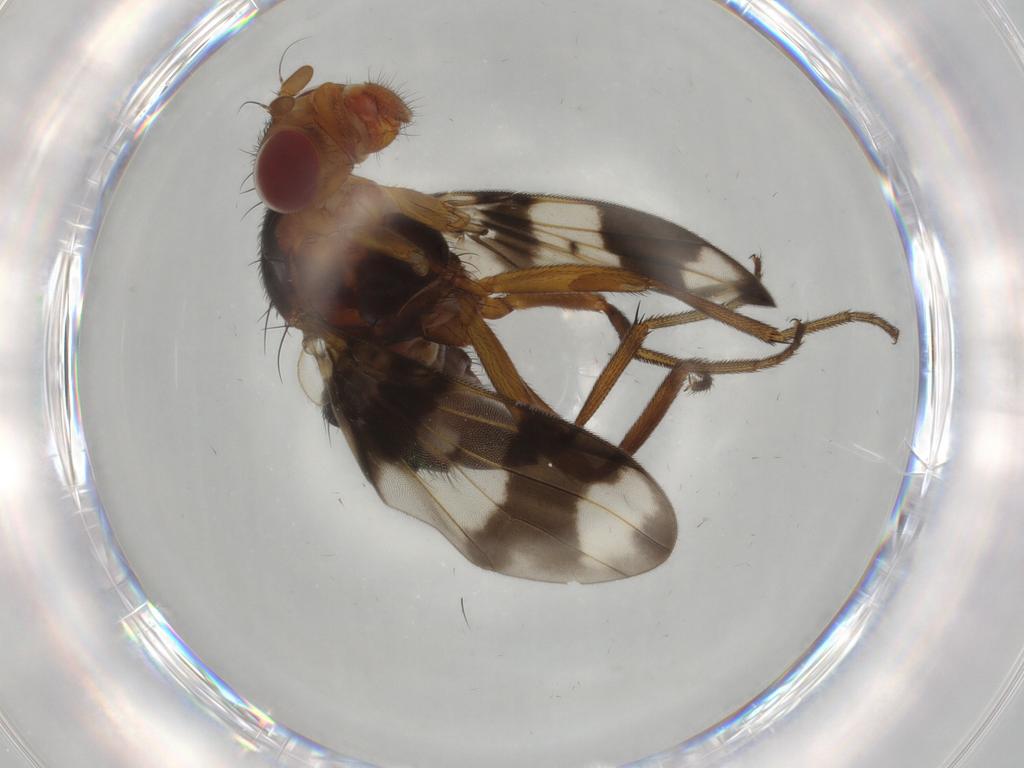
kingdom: Animalia
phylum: Arthropoda
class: Insecta
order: Diptera
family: Richardiidae
